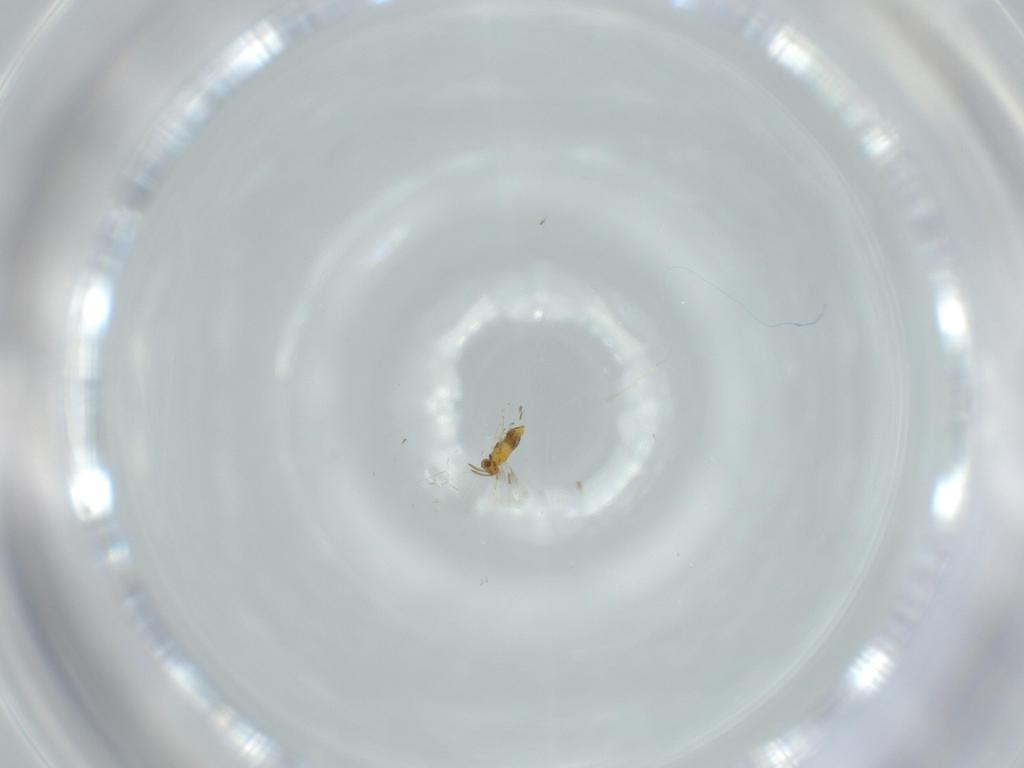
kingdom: Animalia
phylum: Arthropoda
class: Insecta
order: Hymenoptera
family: Aphelinidae
